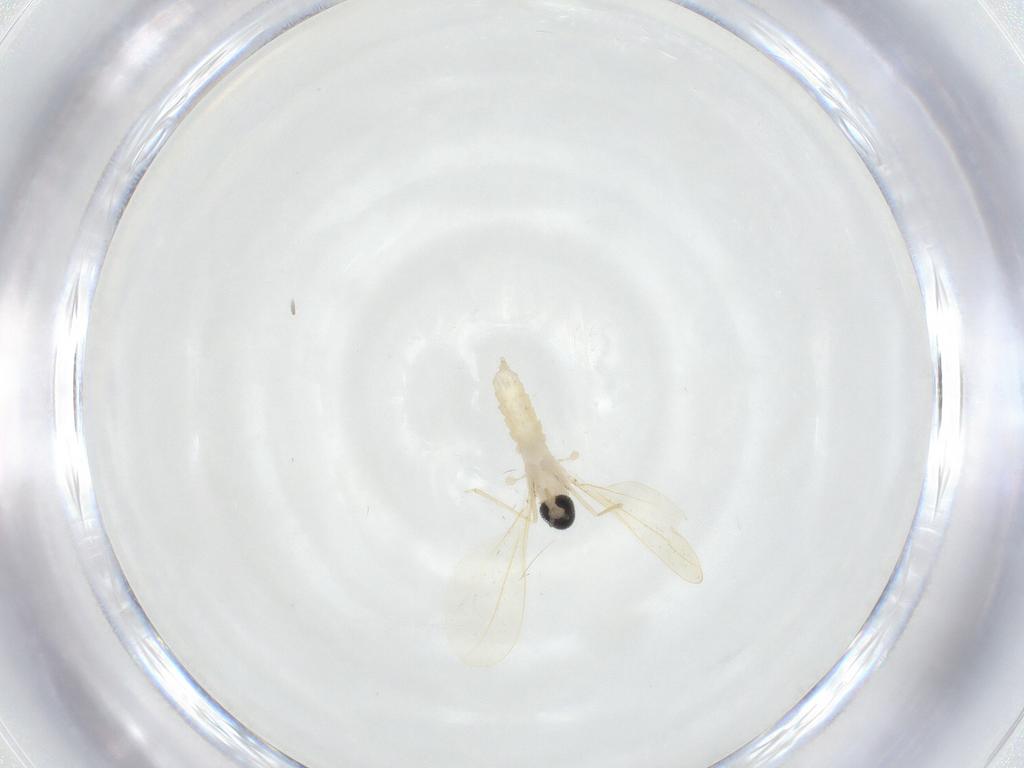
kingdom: Animalia
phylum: Arthropoda
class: Insecta
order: Diptera
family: Cecidomyiidae
